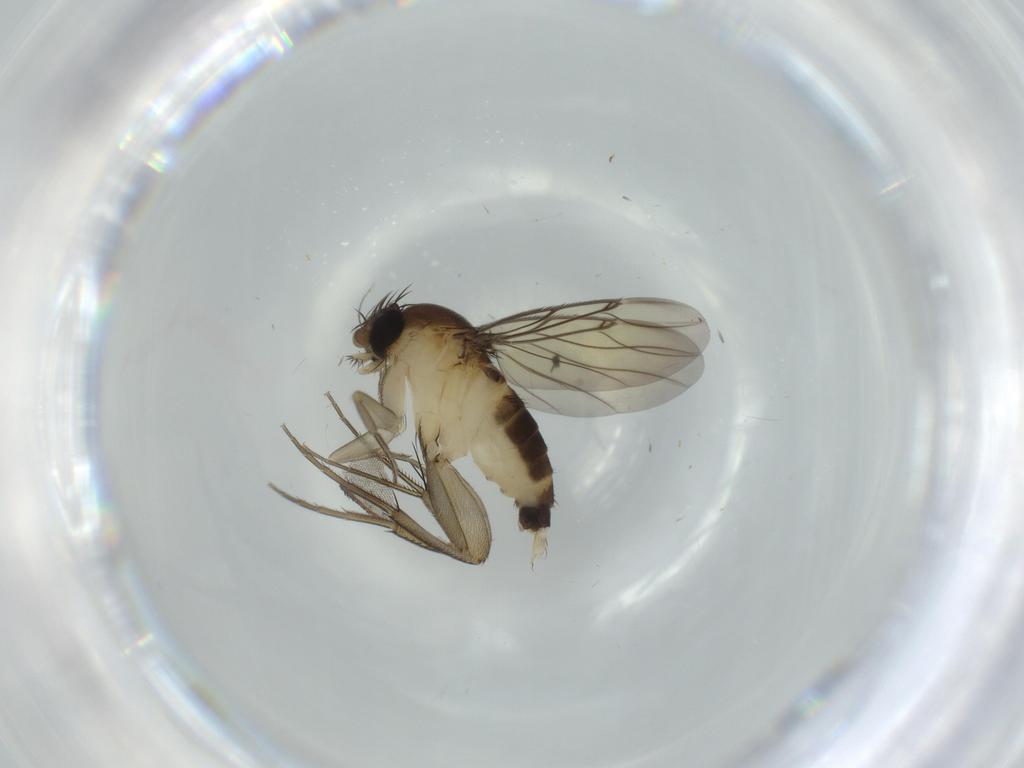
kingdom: Animalia
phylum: Arthropoda
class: Insecta
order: Diptera
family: Phoridae
